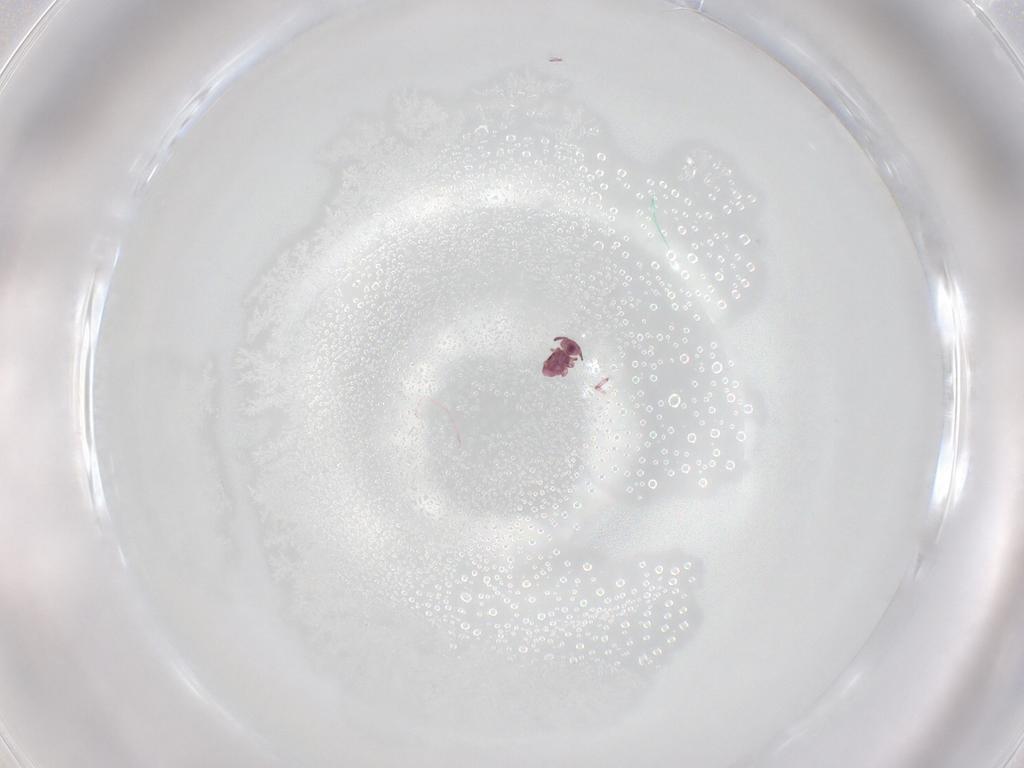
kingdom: Animalia
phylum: Arthropoda
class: Collembola
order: Symphypleona
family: Sminthurididae
